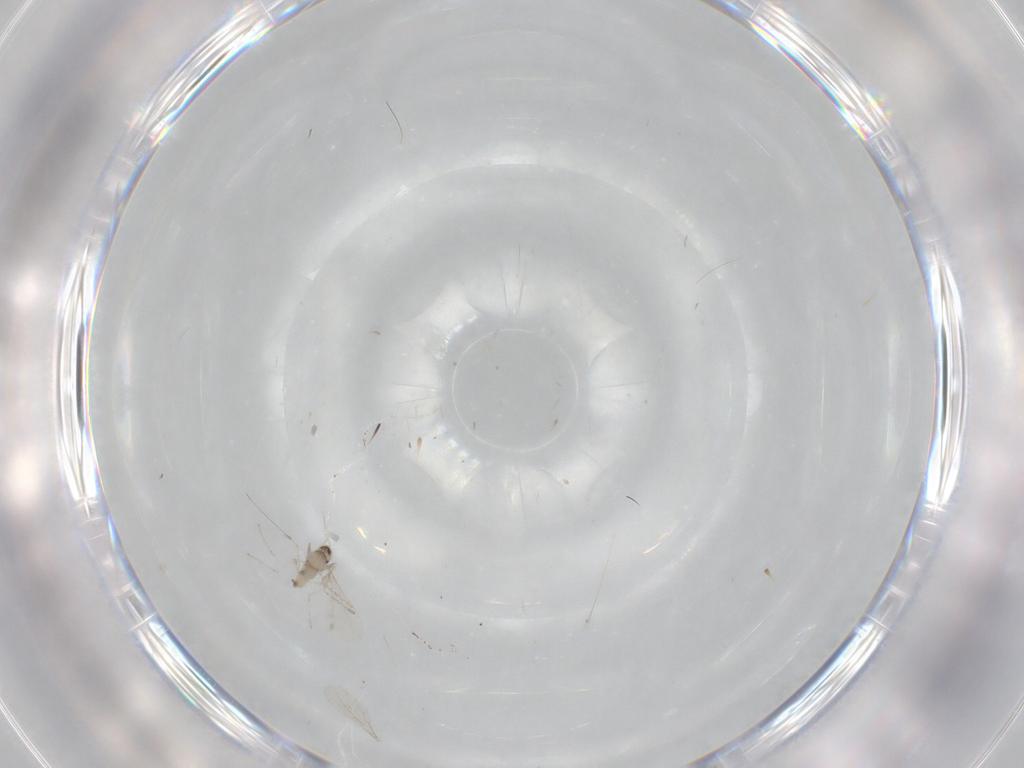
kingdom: Animalia
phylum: Arthropoda
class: Insecta
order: Diptera
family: Cecidomyiidae
